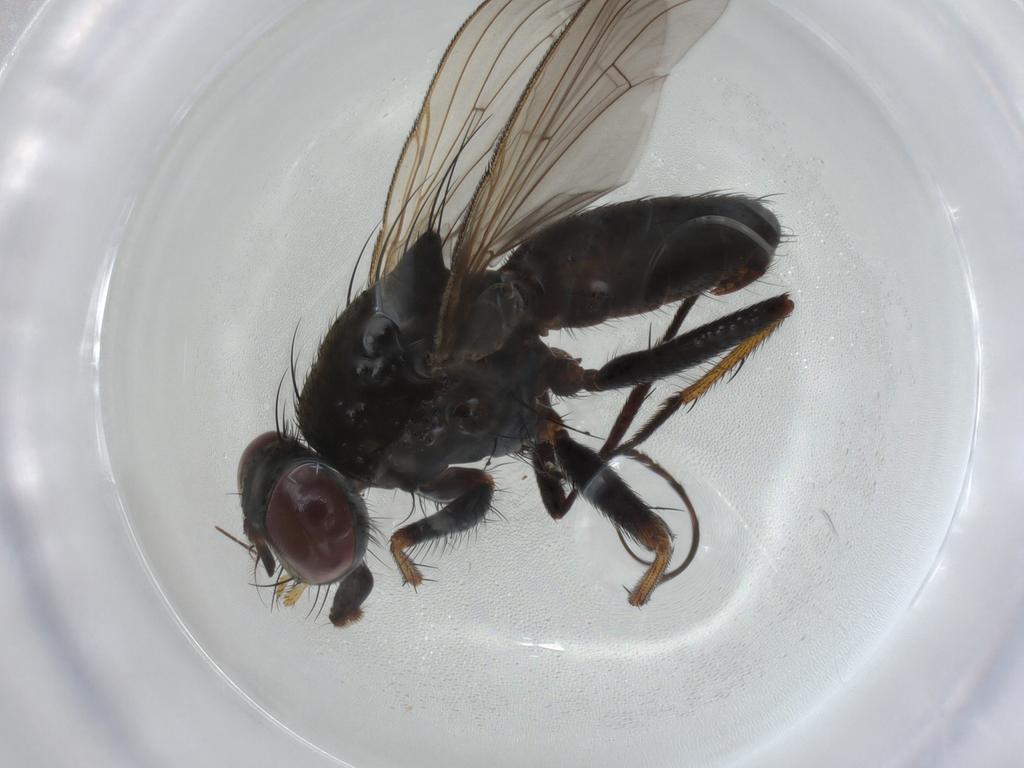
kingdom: Animalia
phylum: Arthropoda
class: Insecta
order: Diptera
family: Muscidae
